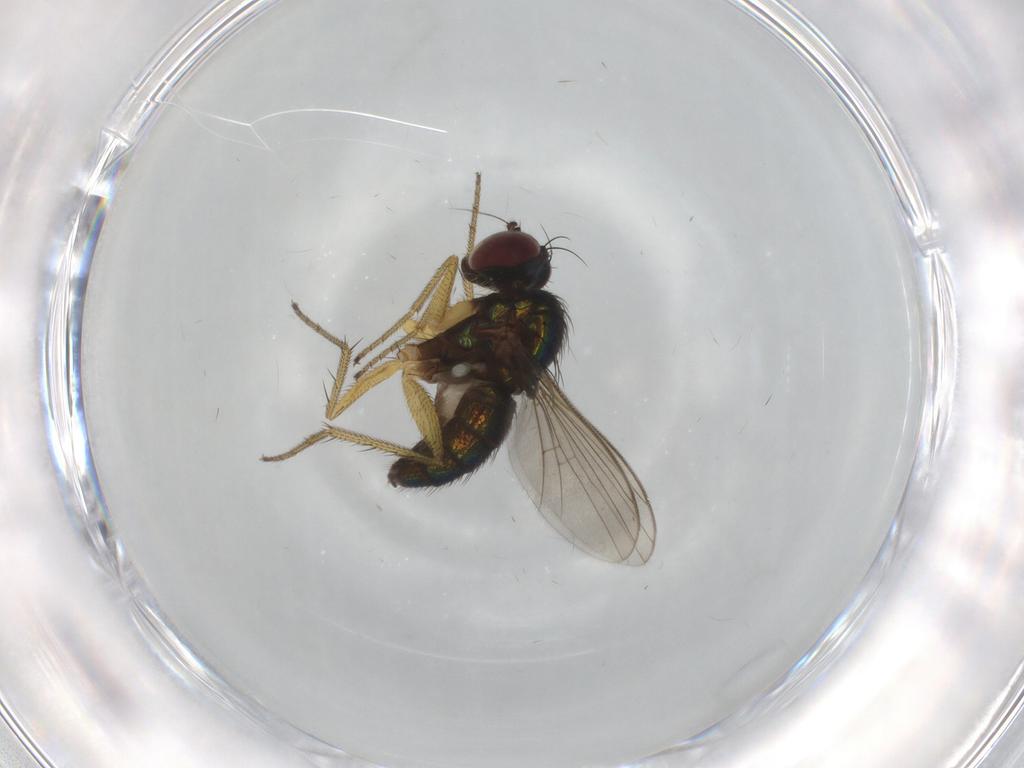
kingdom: Animalia
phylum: Arthropoda
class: Insecta
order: Diptera
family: Dolichopodidae
